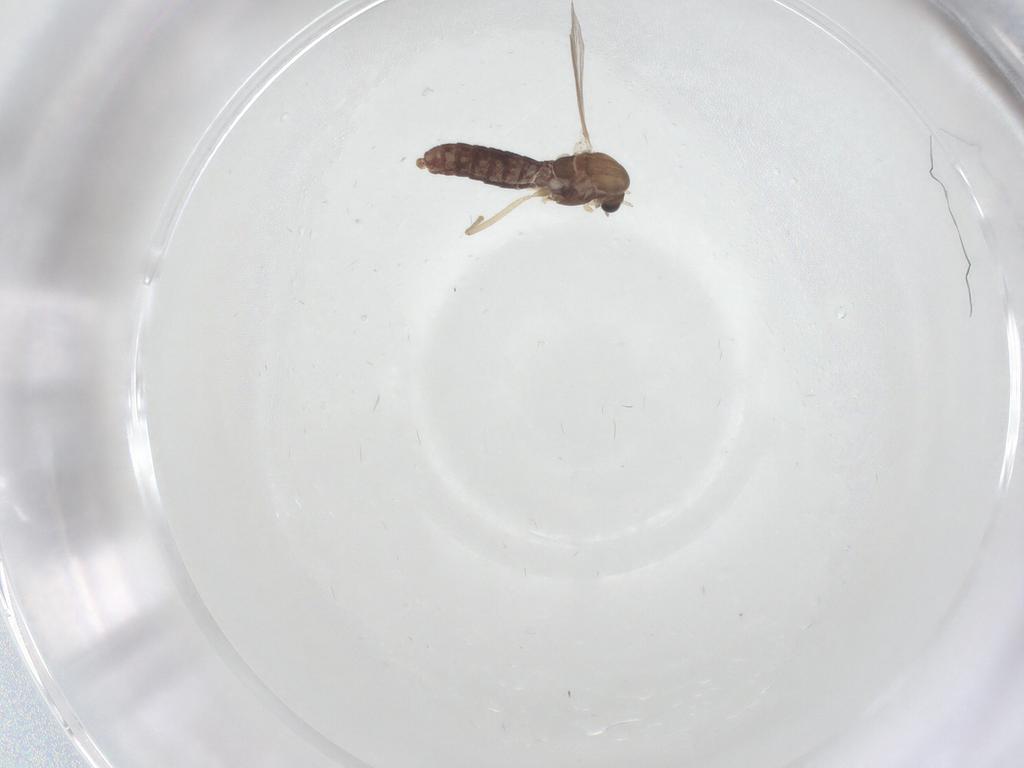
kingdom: Animalia
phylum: Arthropoda
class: Insecta
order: Diptera
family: Chironomidae
